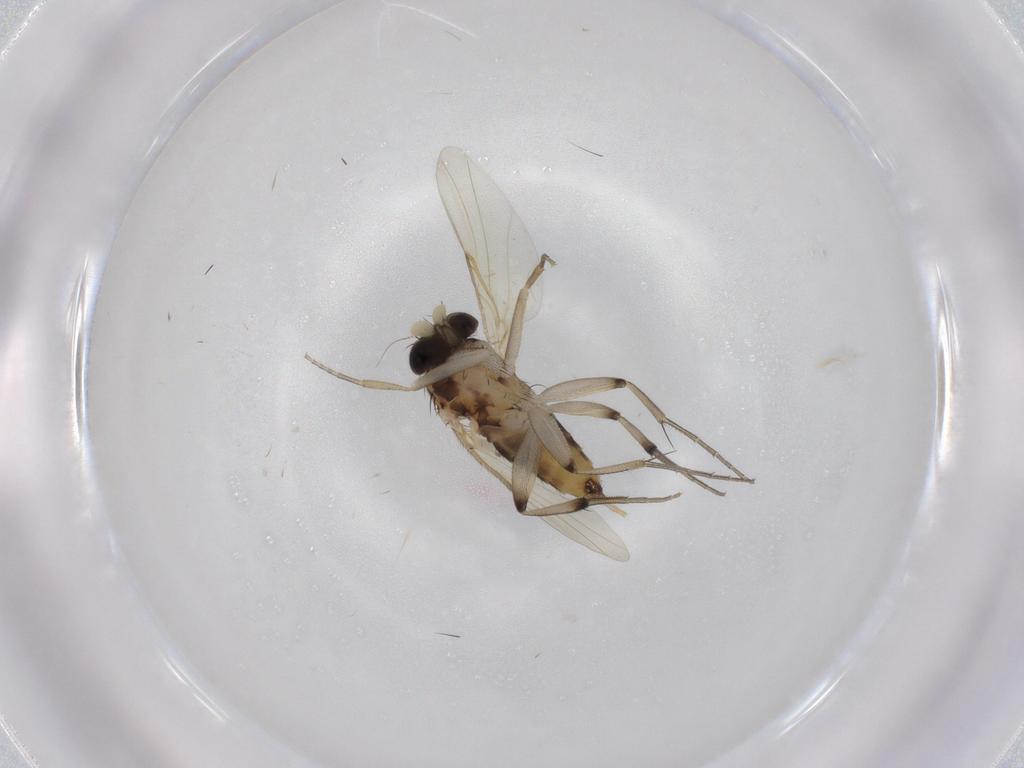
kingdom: Animalia
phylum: Arthropoda
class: Insecta
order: Diptera
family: Phoridae
